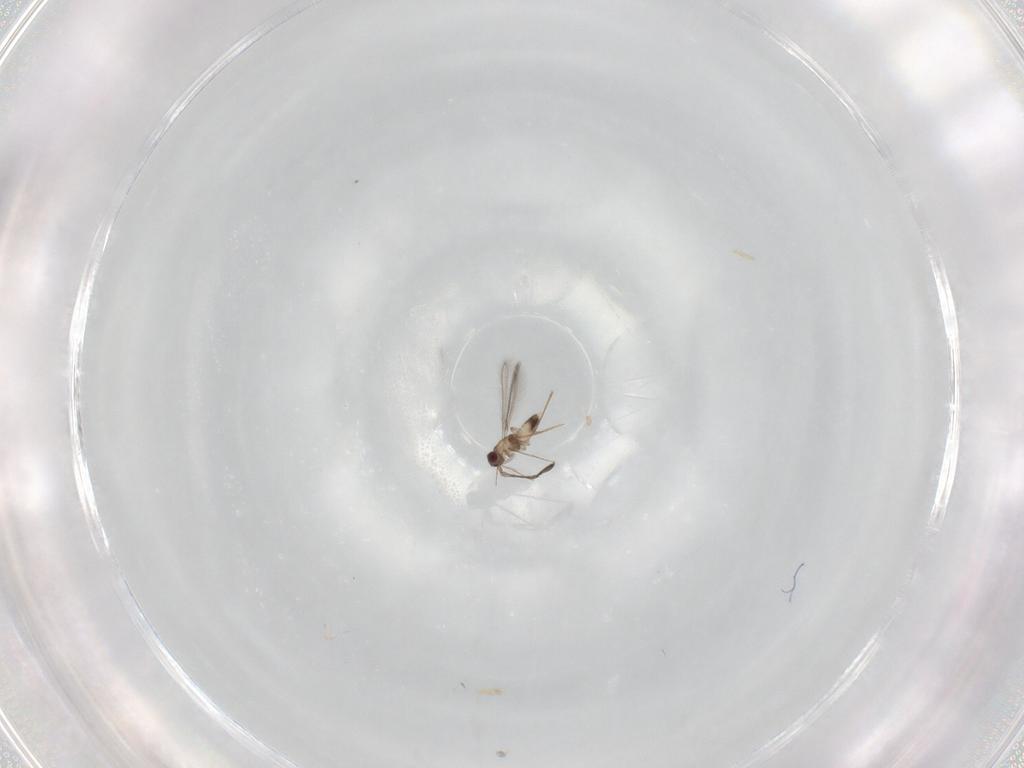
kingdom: Animalia
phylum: Arthropoda
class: Insecta
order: Hymenoptera
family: Mymaridae
